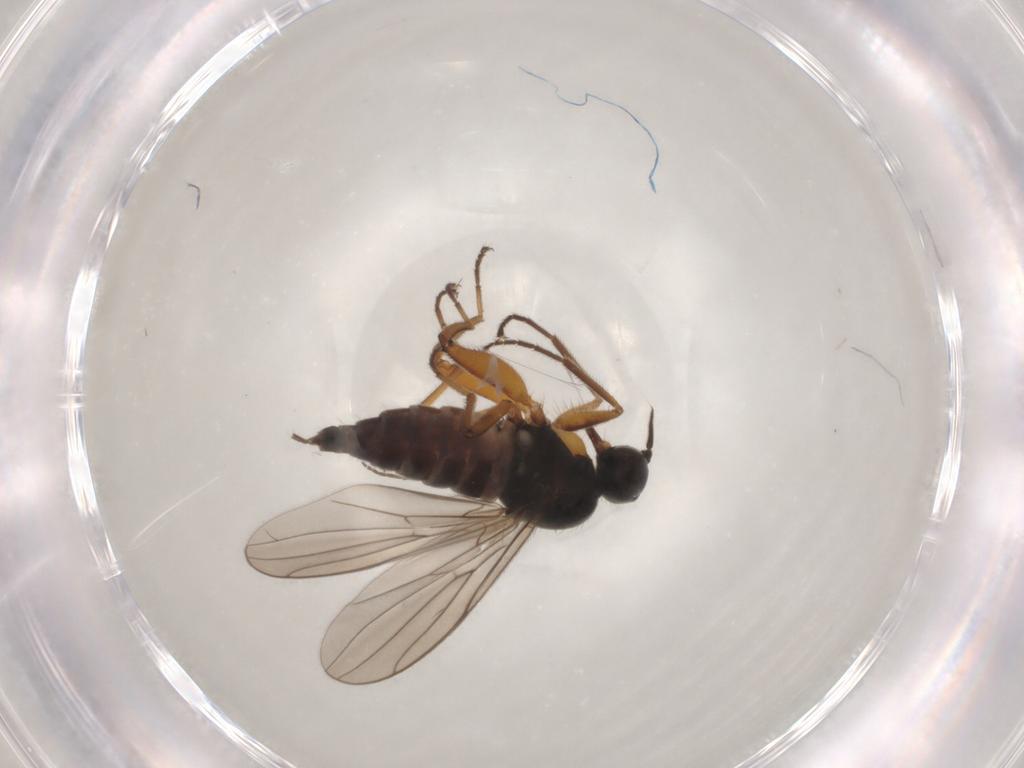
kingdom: Animalia
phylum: Arthropoda
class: Insecta
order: Diptera
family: Hybotidae
